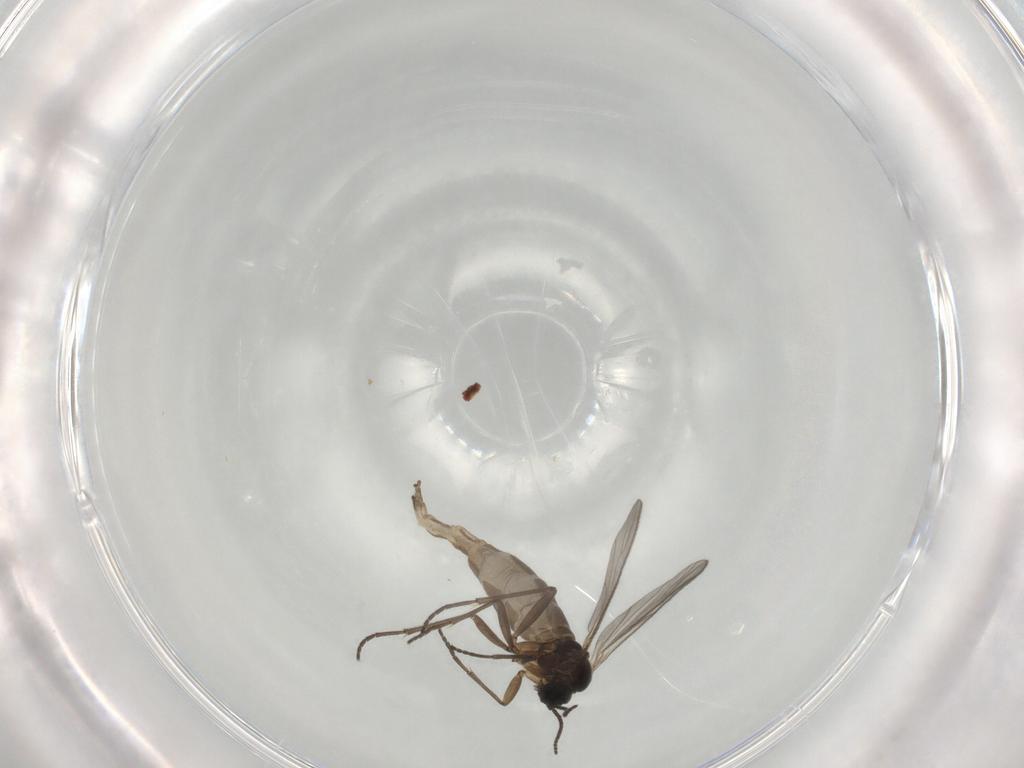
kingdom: Animalia
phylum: Arthropoda
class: Insecta
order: Diptera
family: Sciaridae
